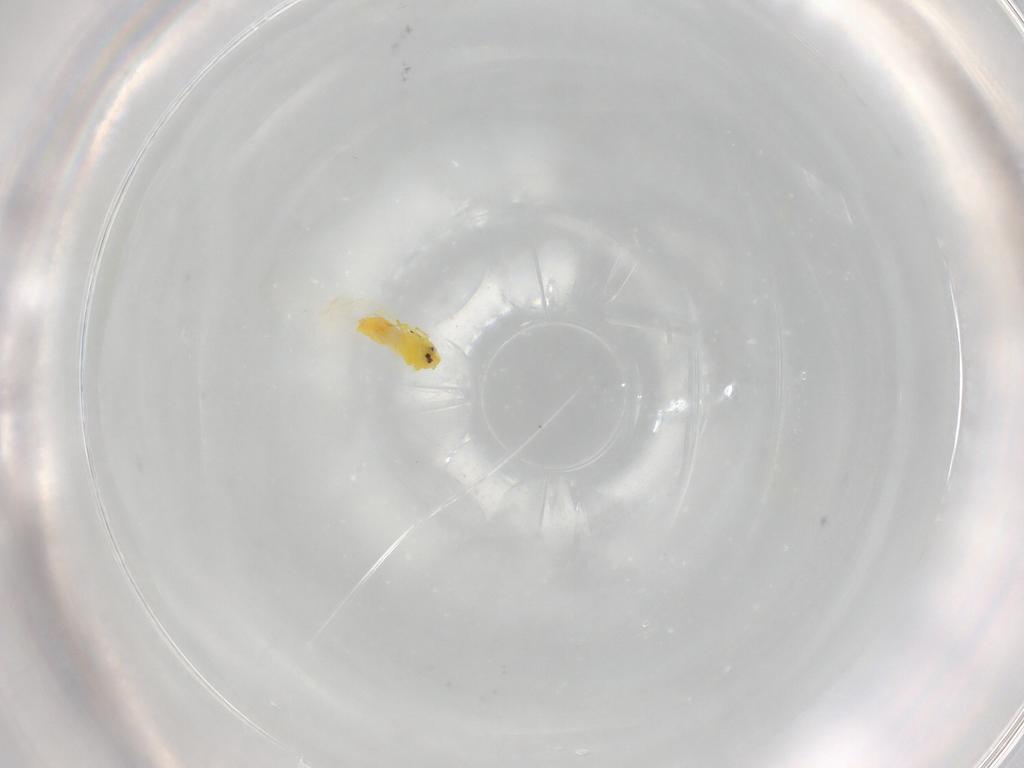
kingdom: Animalia
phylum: Arthropoda
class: Insecta
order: Hemiptera
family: Aleyrodidae
